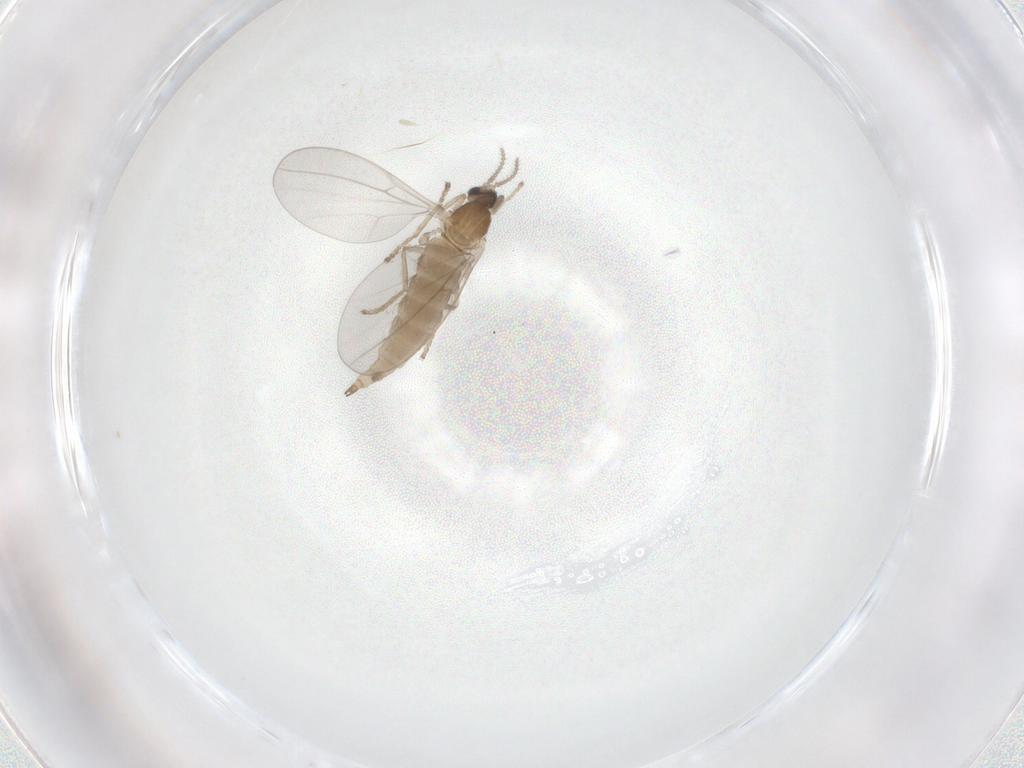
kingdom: Animalia
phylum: Arthropoda
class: Insecta
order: Diptera
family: Cecidomyiidae
